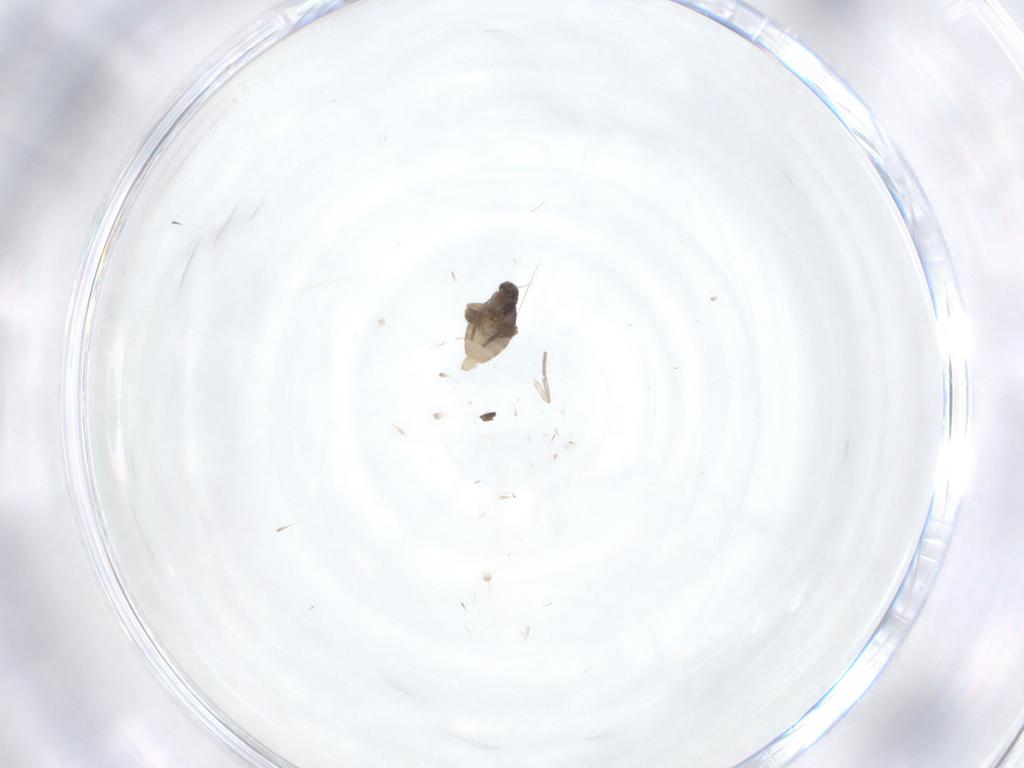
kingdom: Animalia
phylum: Arthropoda
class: Insecta
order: Diptera
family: Psychodidae
